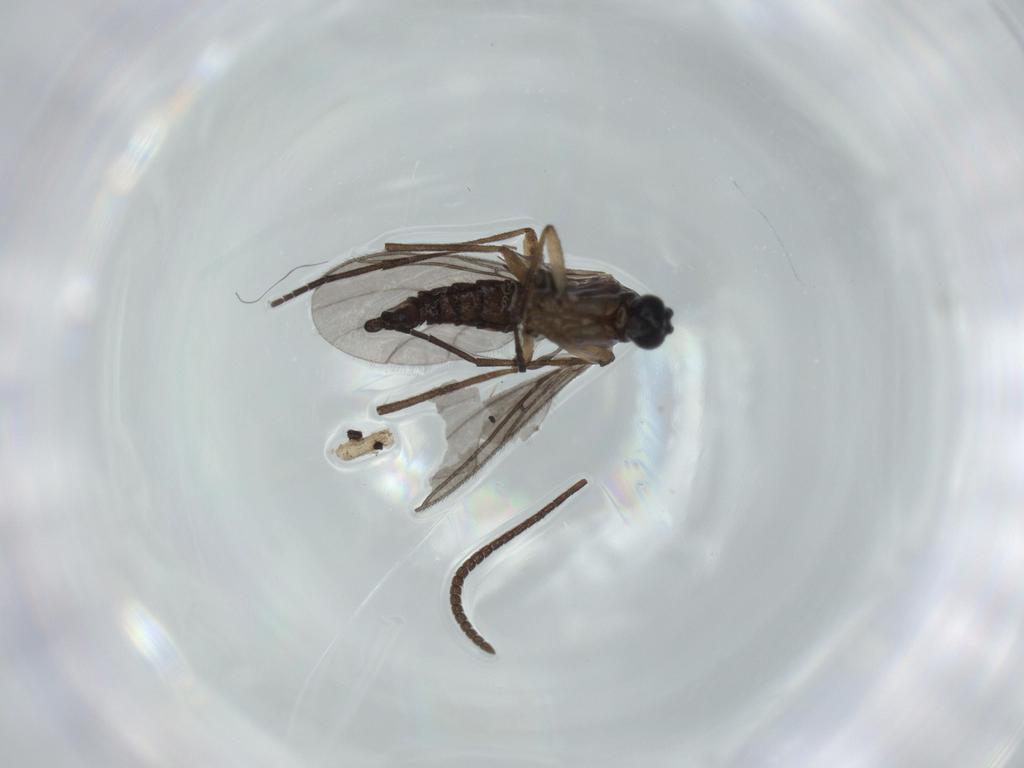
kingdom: Animalia
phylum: Arthropoda
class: Insecta
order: Diptera
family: Sciaridae
